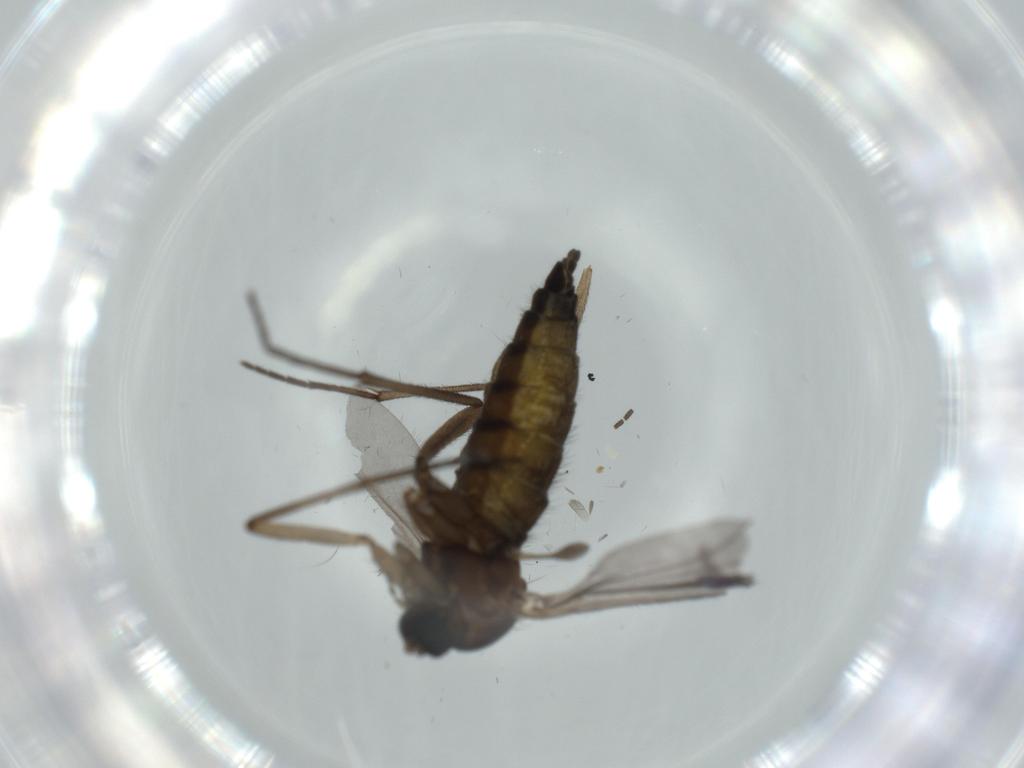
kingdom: Animalia
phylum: Arthropoda
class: Insecta
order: Diptera
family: Sciaridae
